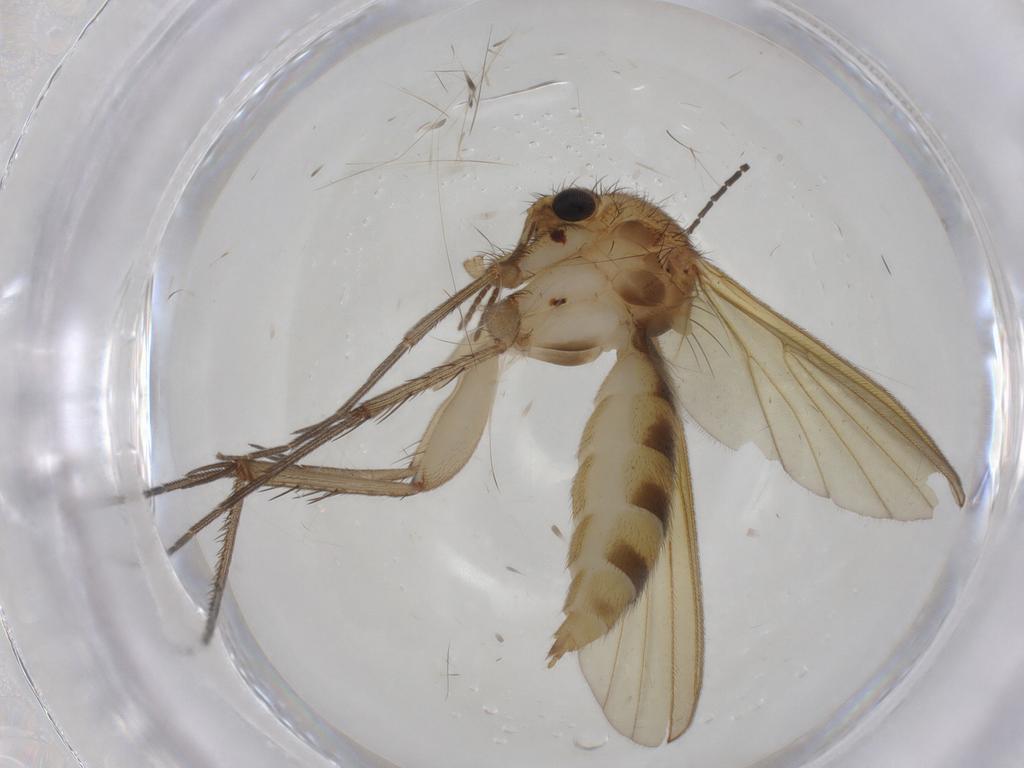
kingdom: Animalia
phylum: Arthropoda
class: Insecta
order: Diptera
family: Mycetophilidae
